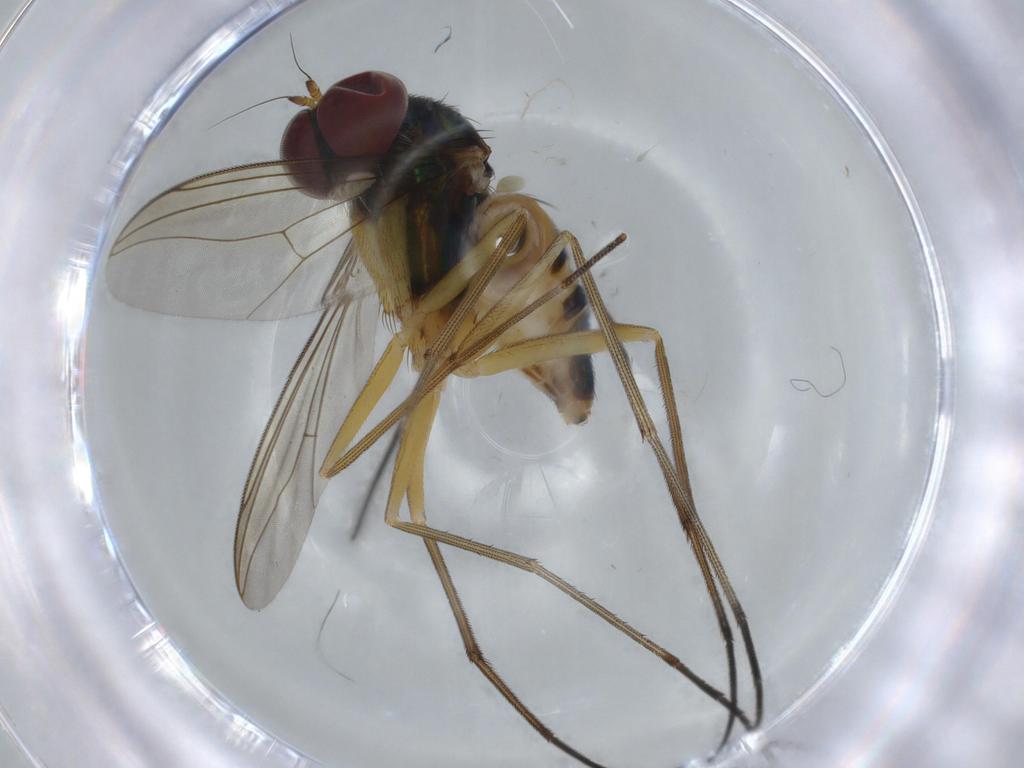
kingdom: Animalia
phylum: Arthropoda
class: Insecta
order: Diptera
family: Dolichopodidae
